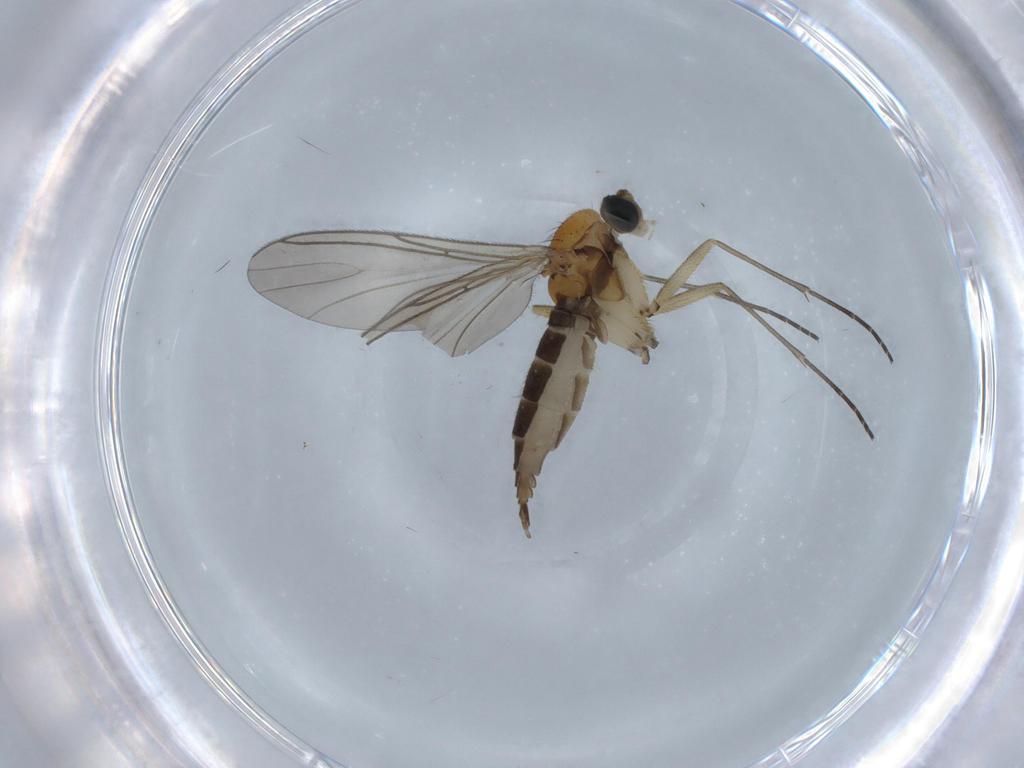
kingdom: Animalia
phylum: Arthropoda
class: Insecta
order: Diptera
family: Sciaridae
